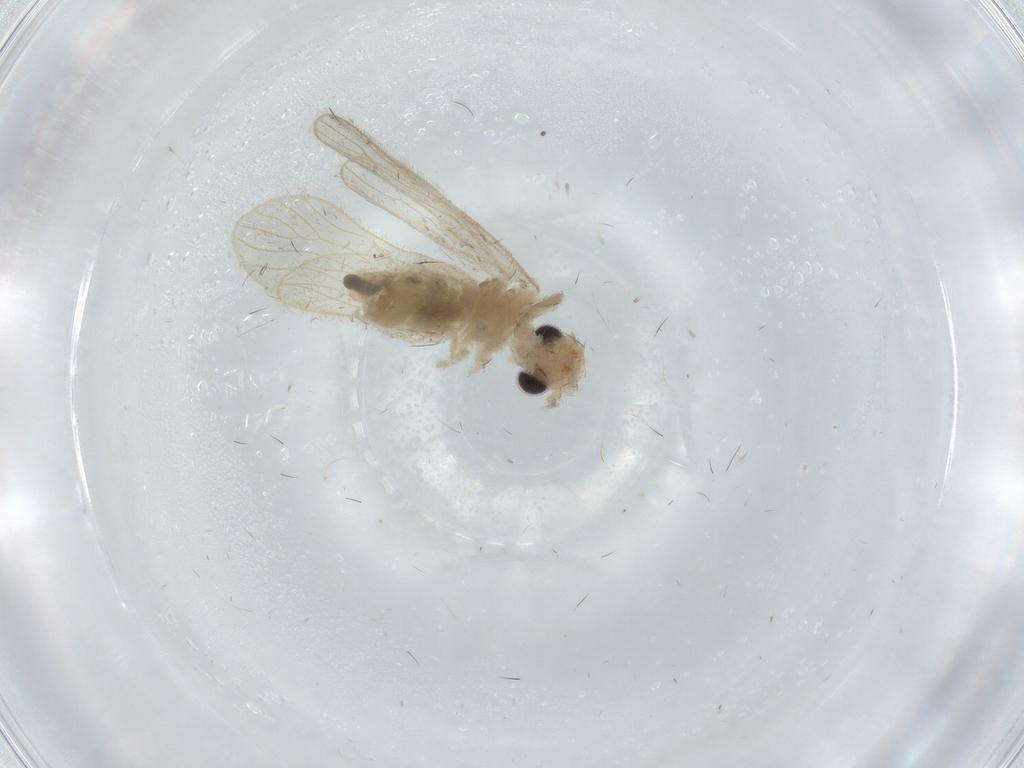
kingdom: Animalia
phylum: Arthropoda
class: Insecta
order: Psocodea
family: Cladiopsocidae
